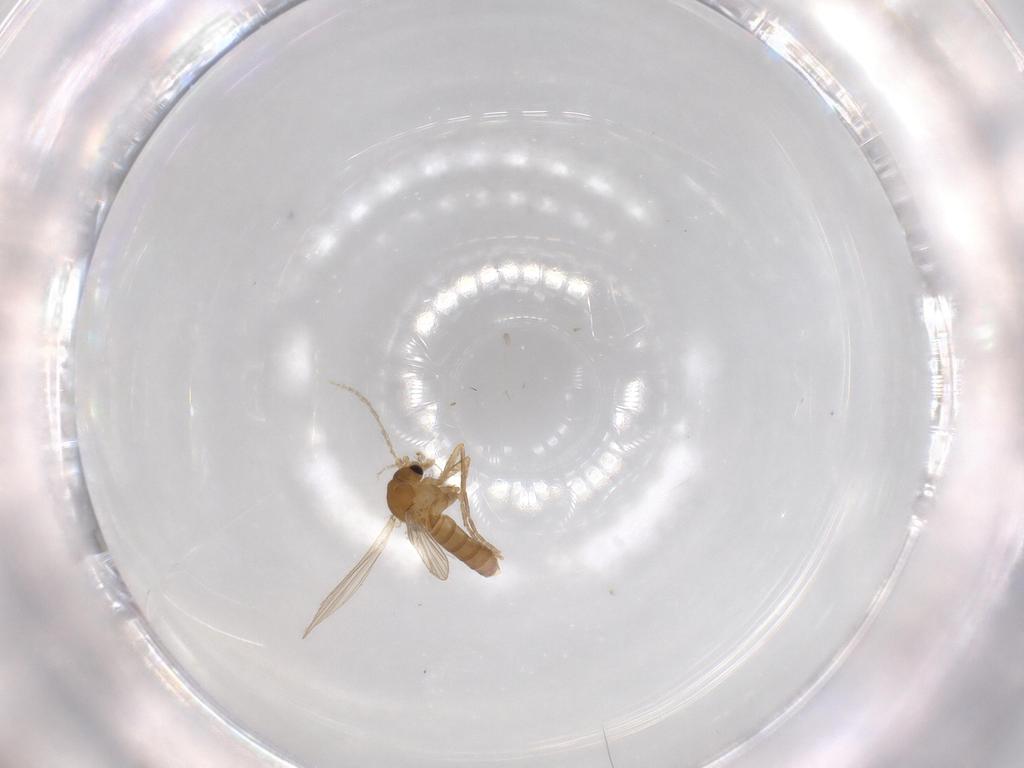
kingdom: Animalia
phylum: Arthropoda
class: Insecta
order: Diptera
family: Psychodidae
